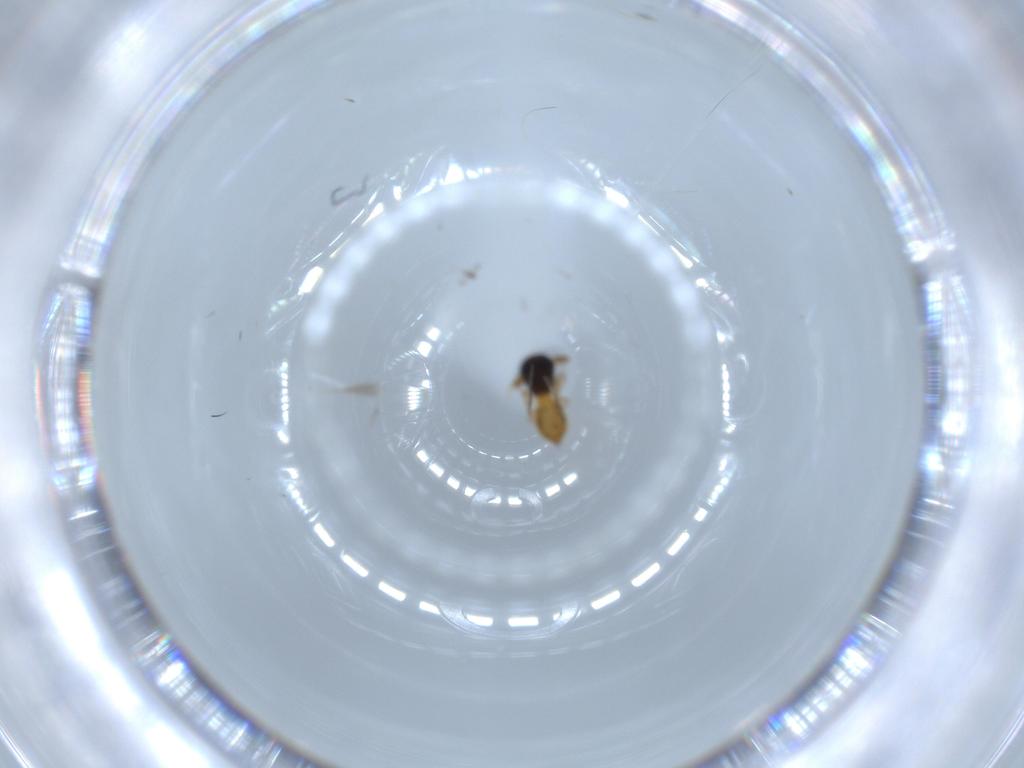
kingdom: Animalia
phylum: Arthropoda
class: Insecta
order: Hymenoptera
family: Scelionidae
